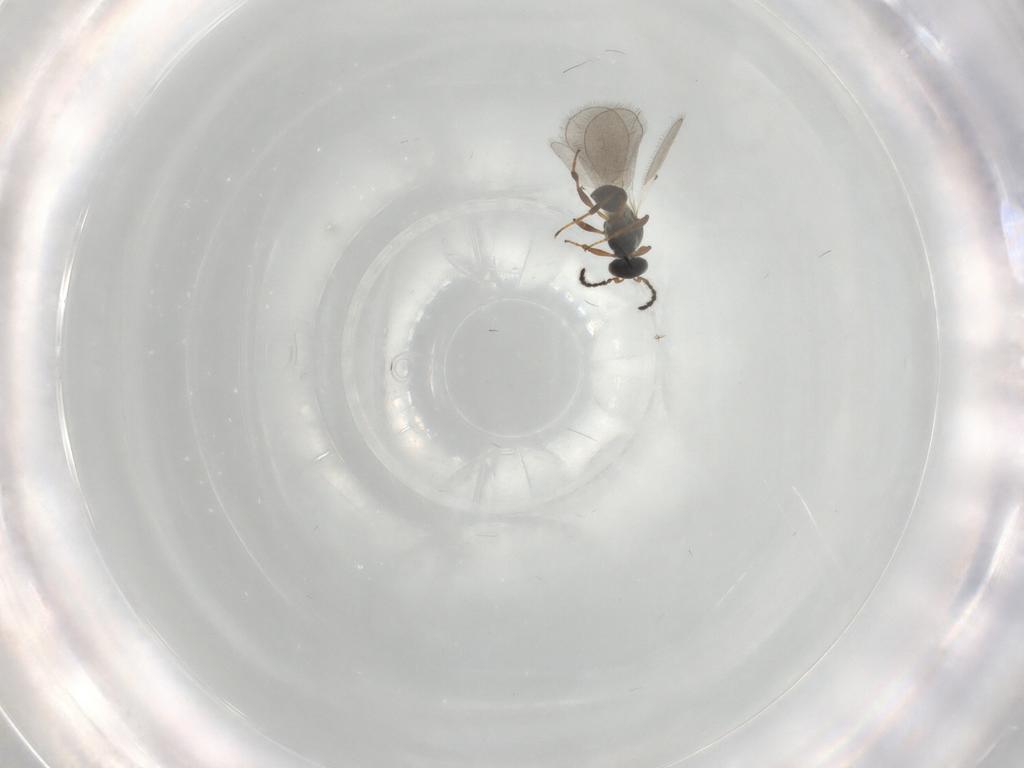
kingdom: Animalia
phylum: Arthropoda
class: Insecta
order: Hymenoptera
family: Platygastridae
